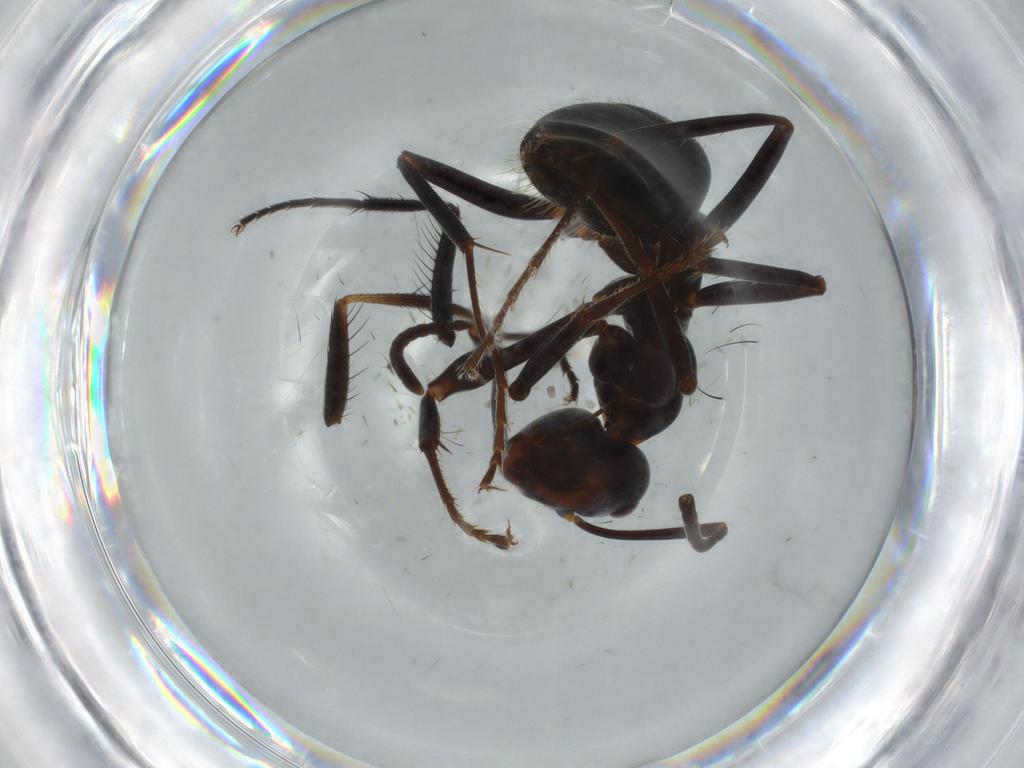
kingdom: Animalia
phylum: Arthropoda
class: Insecta
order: Hymenoptera
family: Formicidae
